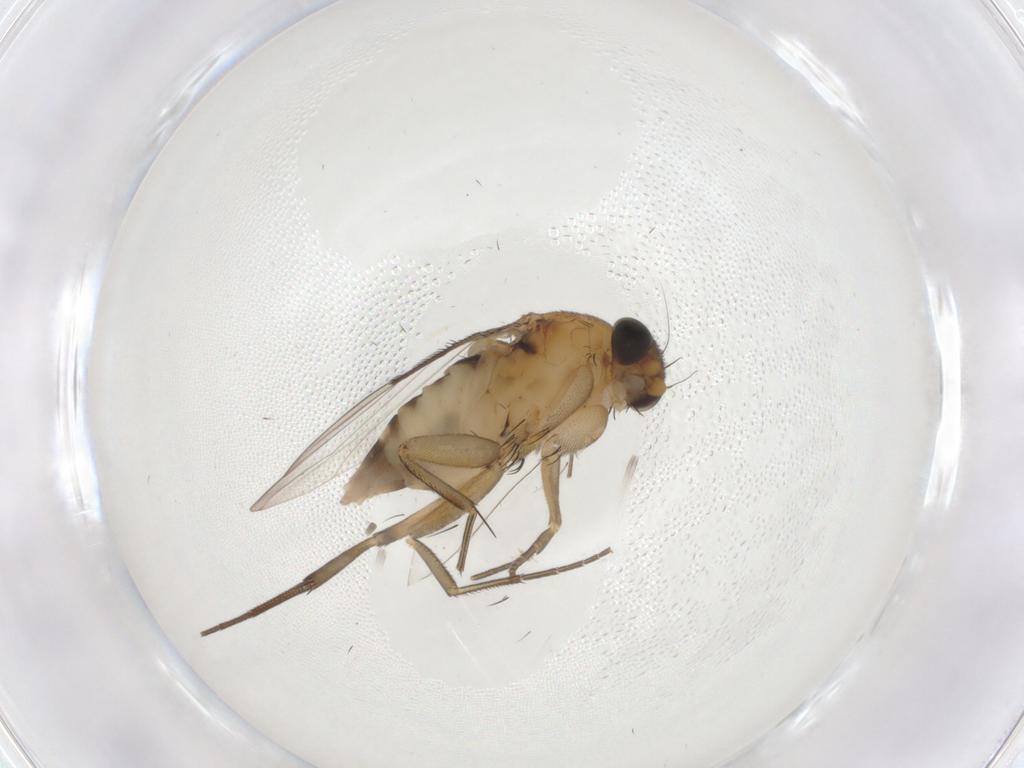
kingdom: Animalia
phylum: Arthropoda
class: Insecta
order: Diptera
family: Phoridae
